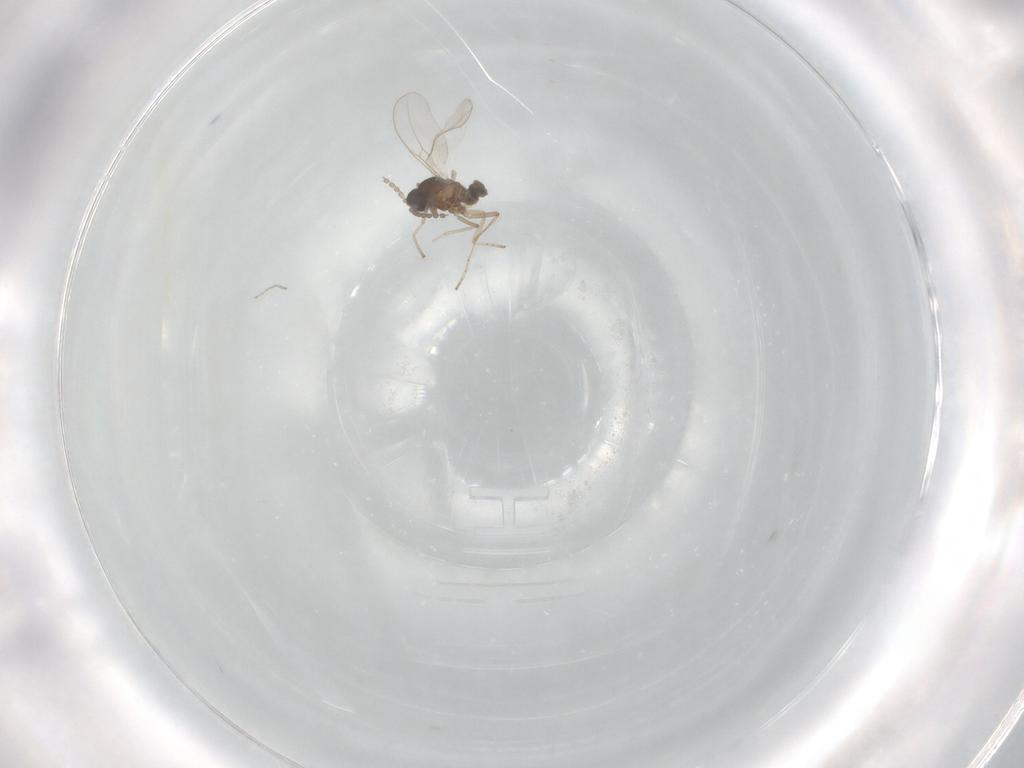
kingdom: Animalia
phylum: Arthropoda
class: Insecta
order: Diptera
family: Cecidomyiidae
